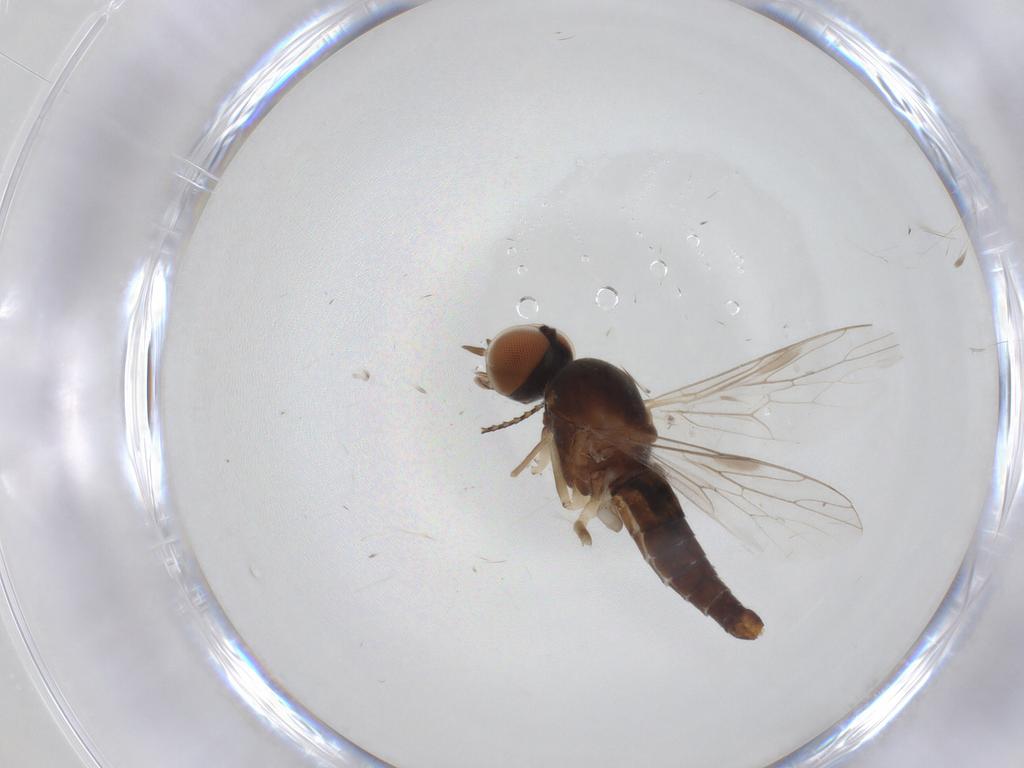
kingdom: Animalia
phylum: Arthropoda
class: Insecta
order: Diptera
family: Scenopinidae
